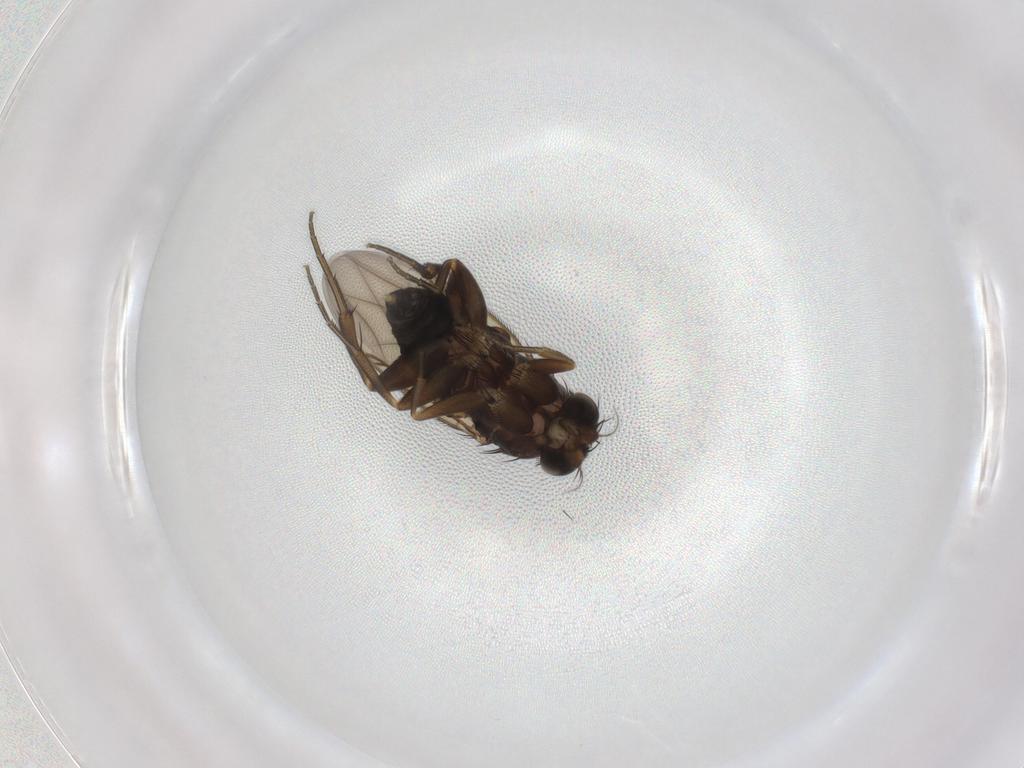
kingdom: Animalia
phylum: Arthropoda
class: Insecta
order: Diptera
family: Phoridae
